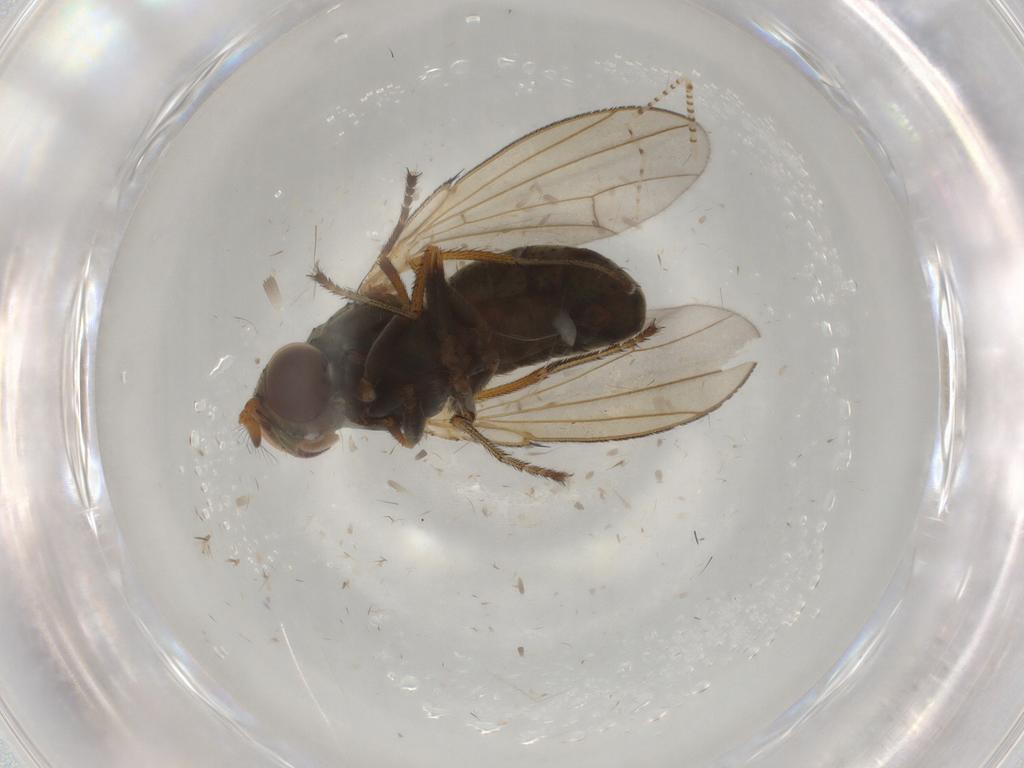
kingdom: Animalia
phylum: Arthropoda
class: Insecta
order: Diptera
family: Ephydridae
